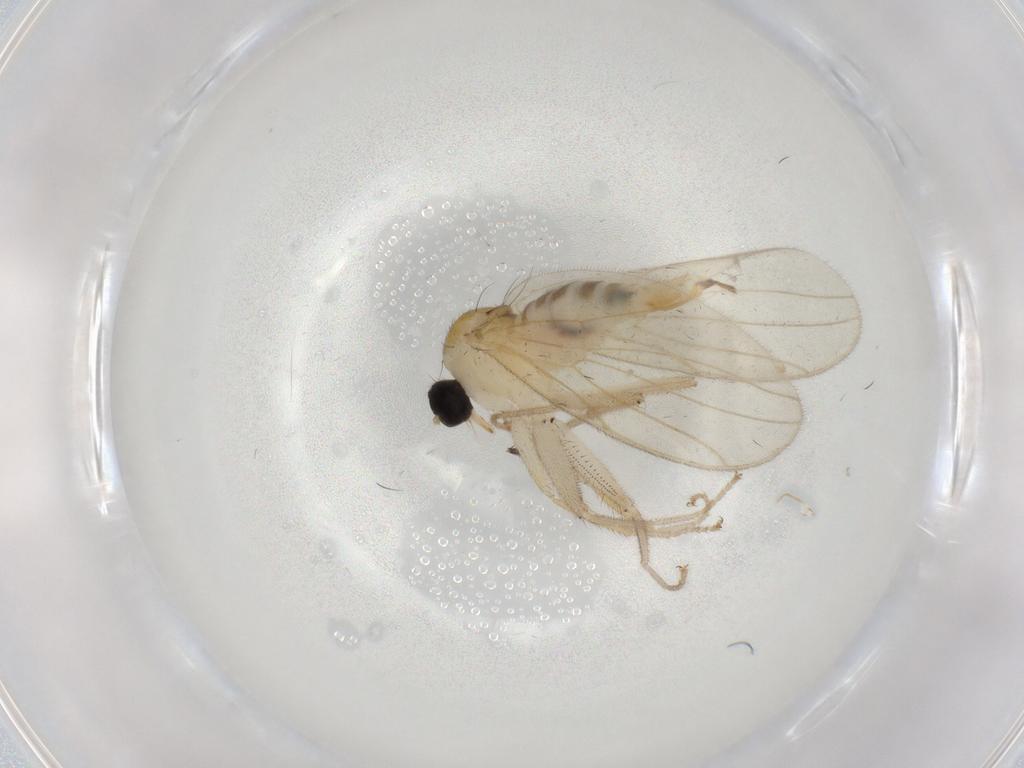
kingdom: Animalia
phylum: Arthropoda
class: Insecta
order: Diptera
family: Hybotidae
